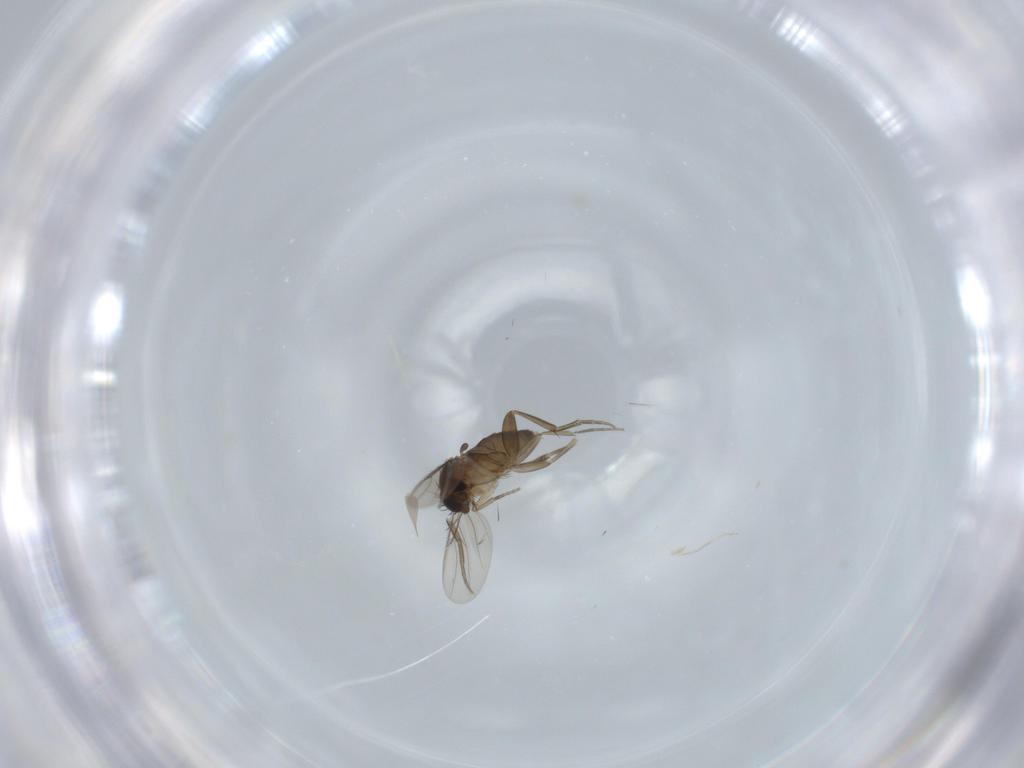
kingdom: Animalia
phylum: Arthropoda
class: Insecta
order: Diptera
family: Phoridae
